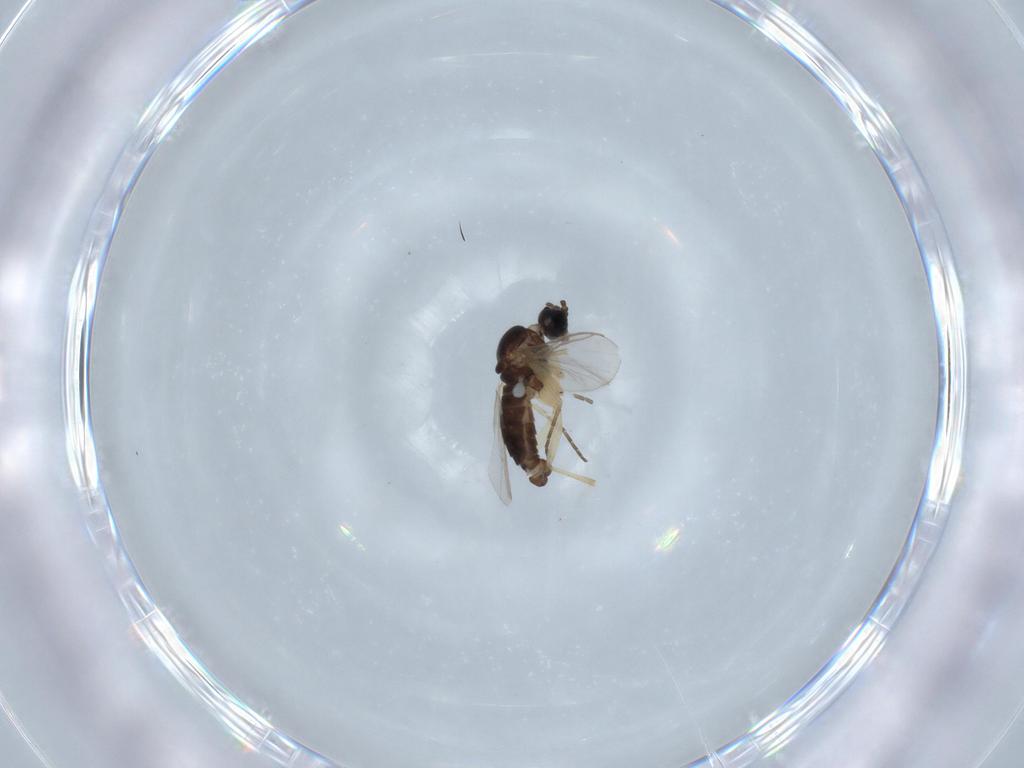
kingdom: Animalia
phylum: Arthropoda
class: Insecta
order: Diptera
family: Sciaridae
